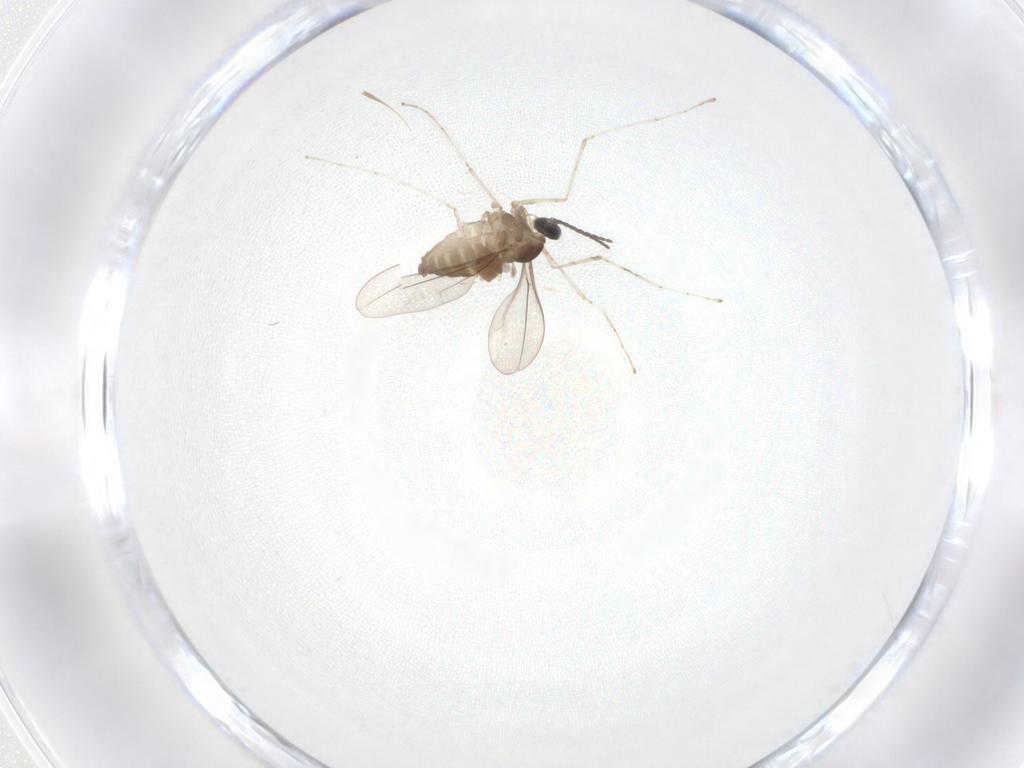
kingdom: Animalia
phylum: Arthropoda
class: Insecta
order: Diptera
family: Cecidomyiidae
